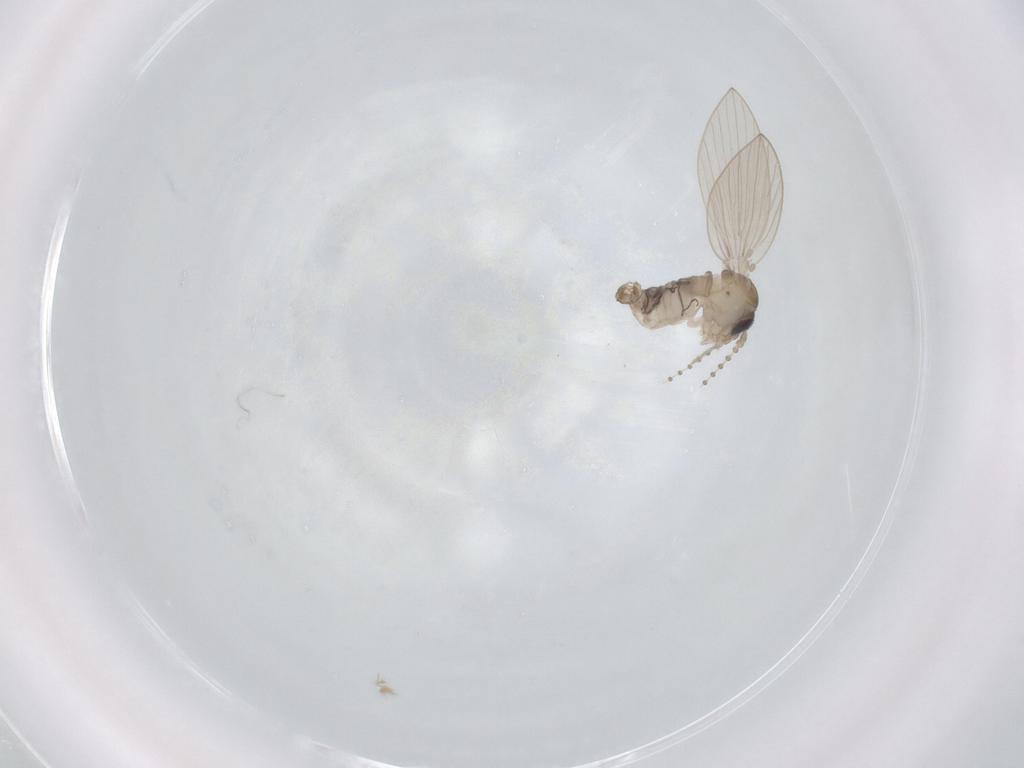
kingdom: Animalia
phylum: Arthropoda
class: Insecta
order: Diptera
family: Psychodidae
